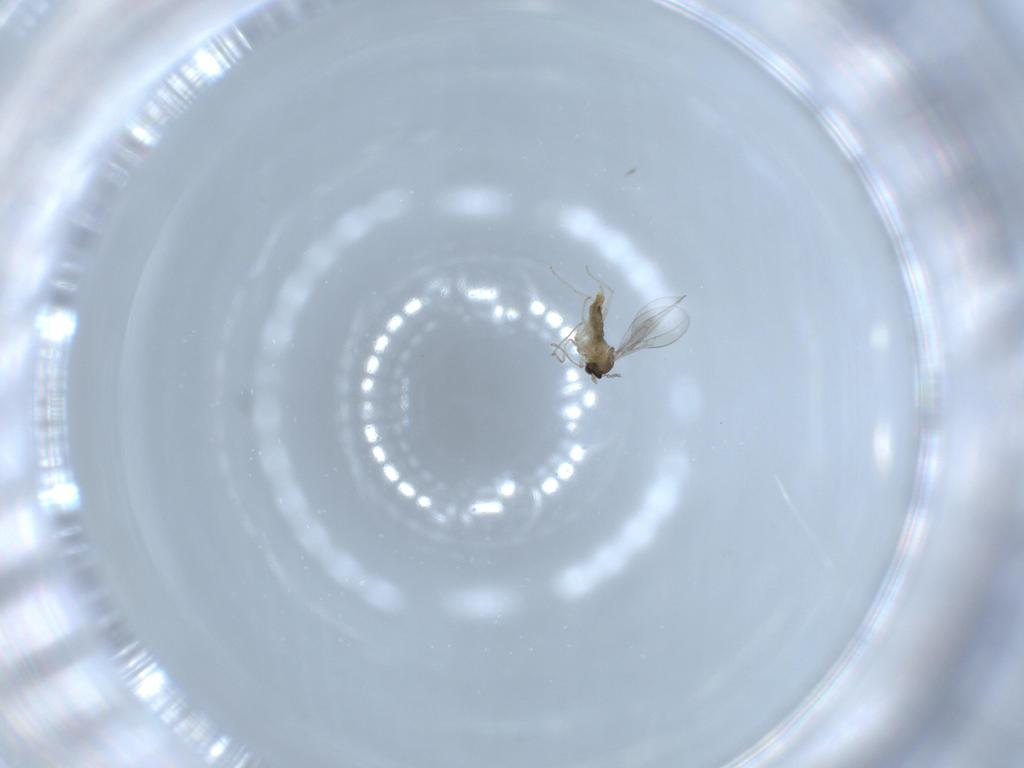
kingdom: Animalia
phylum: Arthropoda
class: Insecta
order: Diptera
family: Cecidomyiidae
